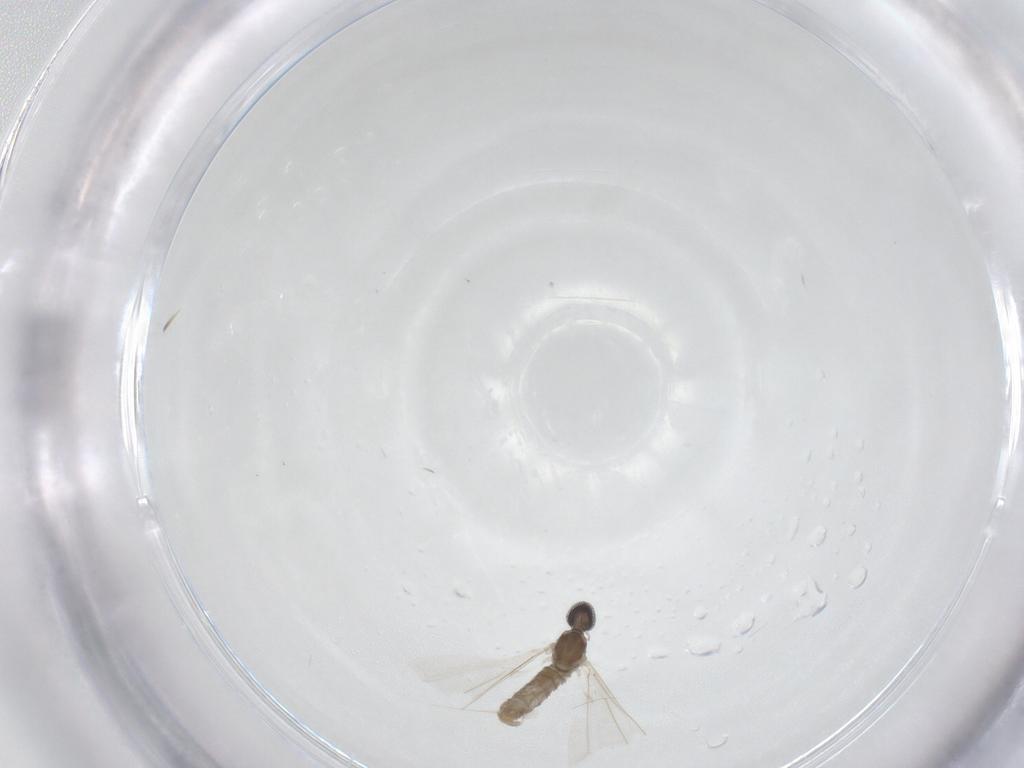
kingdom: Animalia
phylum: Arthropoda
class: Insecta
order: Diptera
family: Cecidomyiidae
